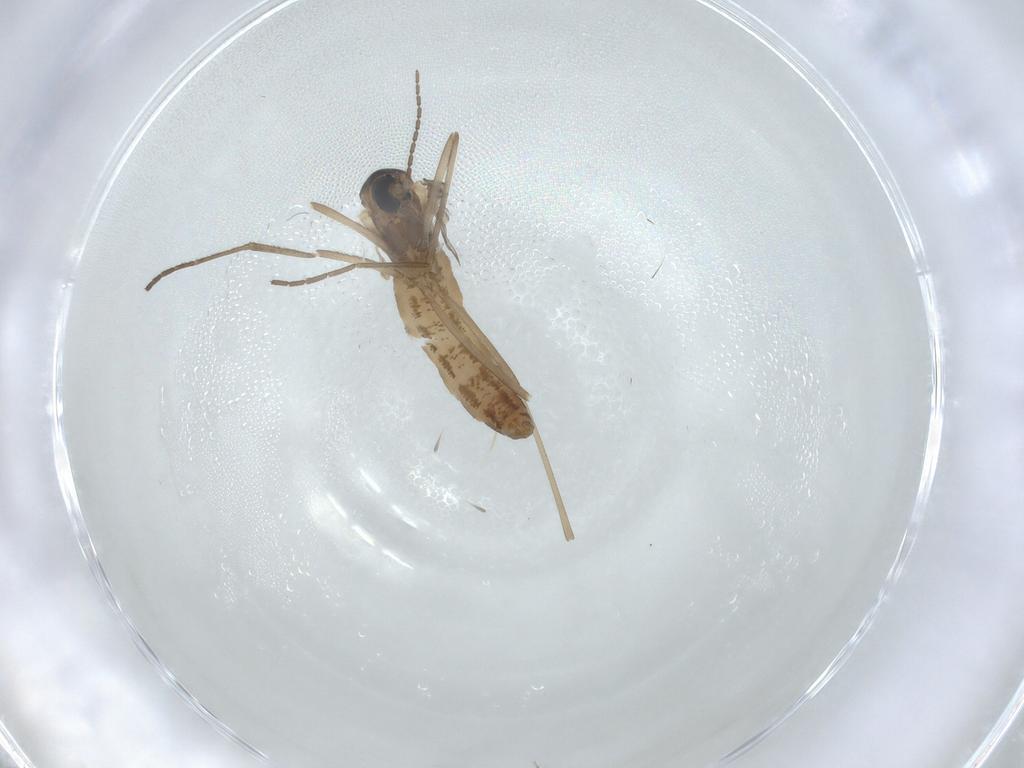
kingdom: Animalia
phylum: Arthropoda
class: Insecta
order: Diptera
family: Cecidomyiidae
